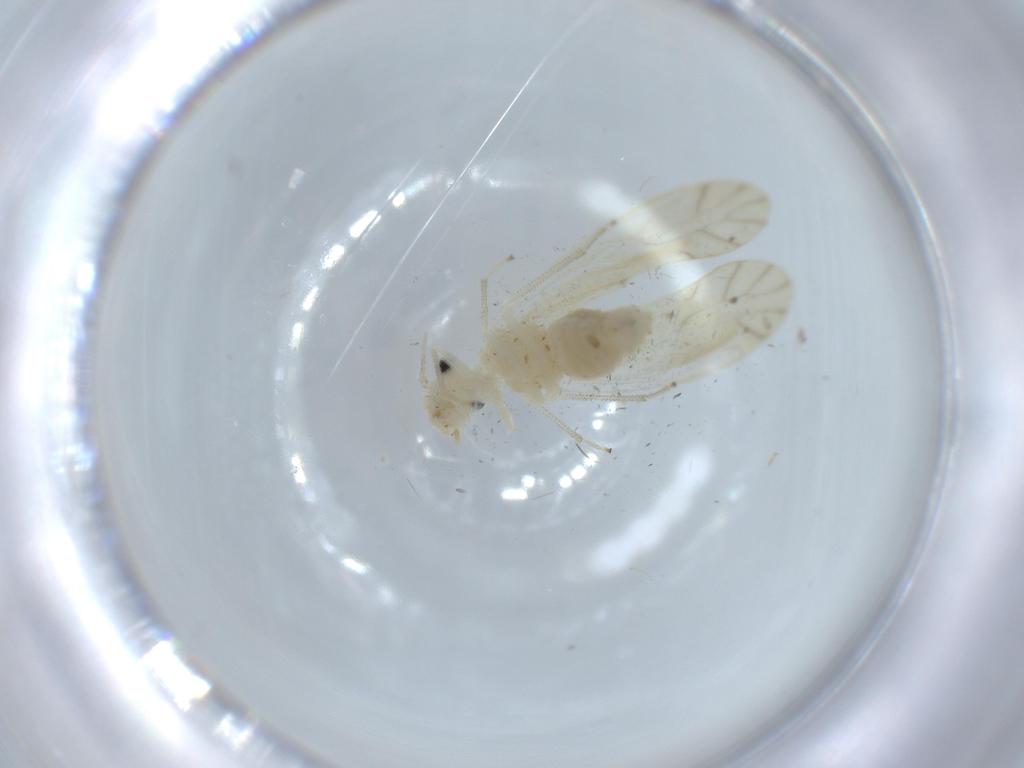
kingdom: Animalia
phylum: Arthropoda
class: Insecta
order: Psocodea
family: Caeciliusidae
